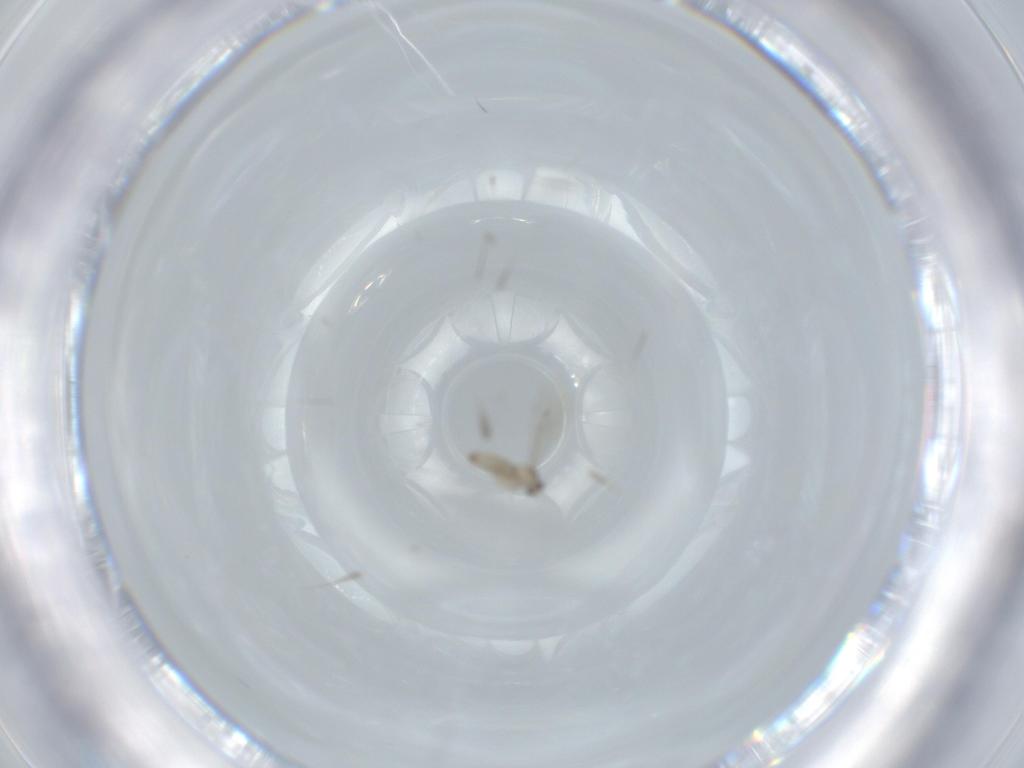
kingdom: Animalia
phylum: Arthropoda
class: Insecta
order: Diptera
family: Cecidomyiidae
